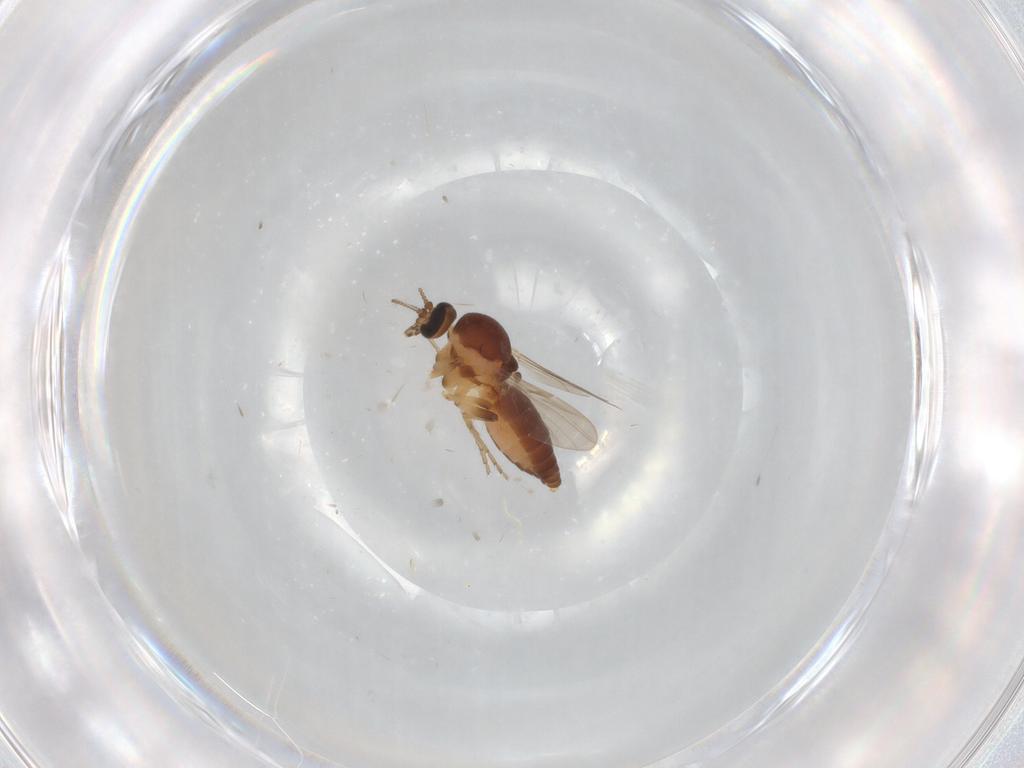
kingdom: Animalia
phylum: Arthropoda
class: Insecta
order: Diptera
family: Ceratopogonidae
